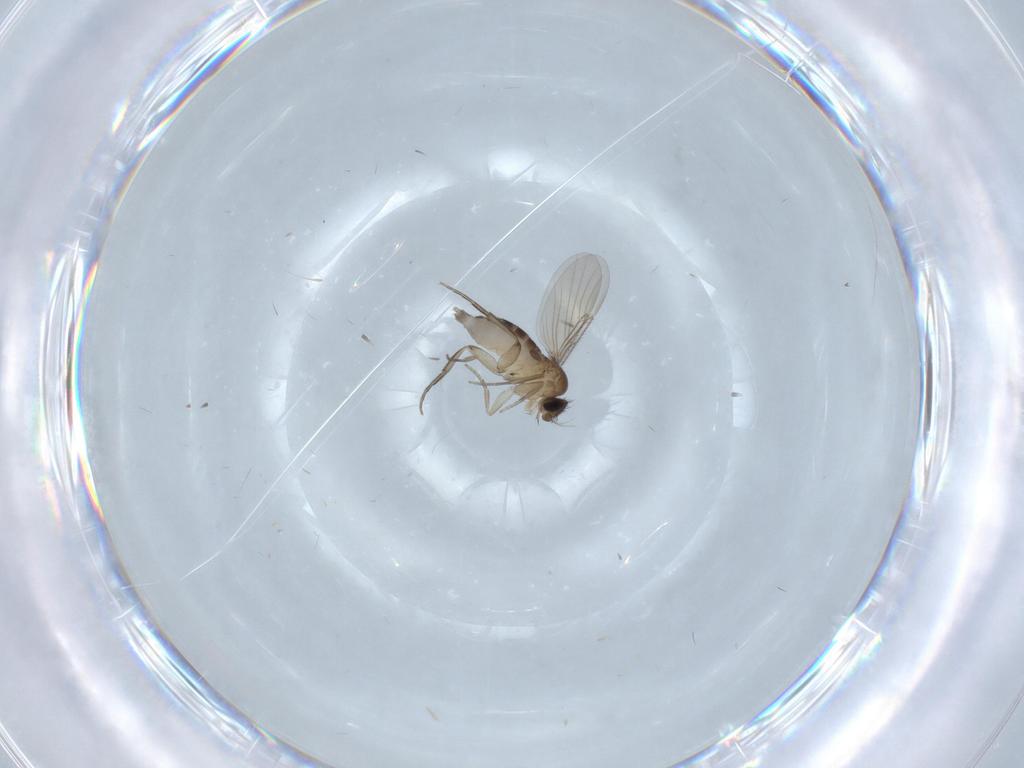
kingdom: Animalia
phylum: Arthropoda
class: Insecta
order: Diptera
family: Phoridae
